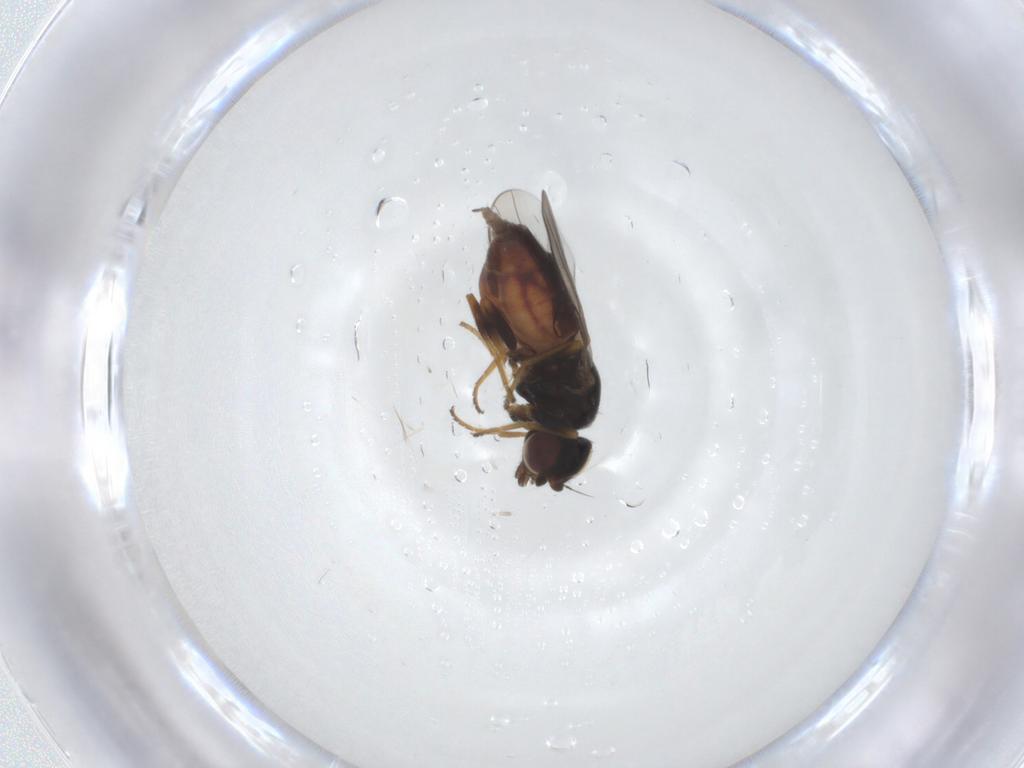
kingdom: Animalia
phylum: Arthropoda
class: Insecta
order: Diptera
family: Chloropidae
